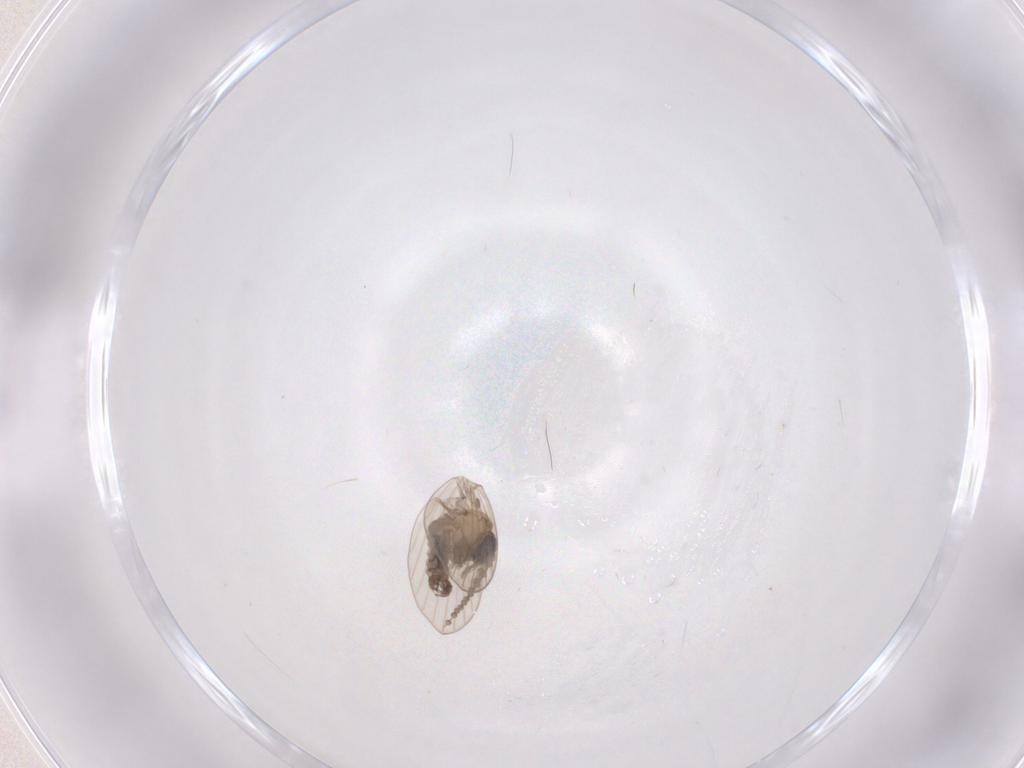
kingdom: Animalia
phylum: Arthropoda
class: Insecta
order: Diptera
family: Psychodidae
